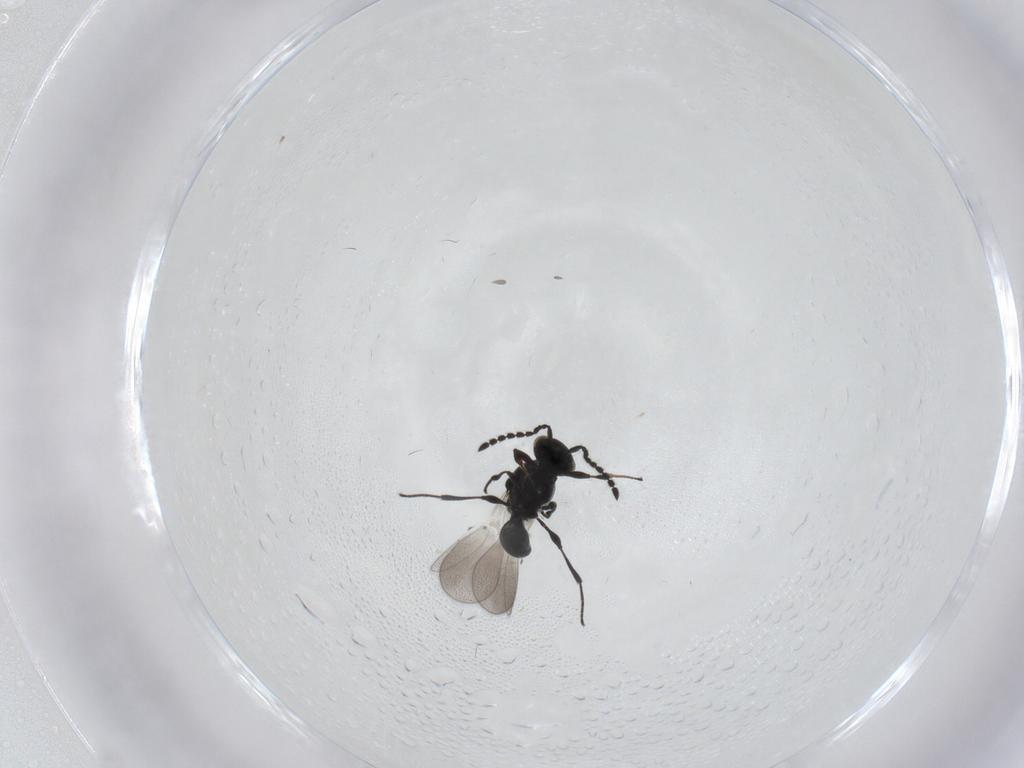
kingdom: Animalia
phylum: Arthropoda
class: Insecta
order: Hymenoptera
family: Platygastridae
